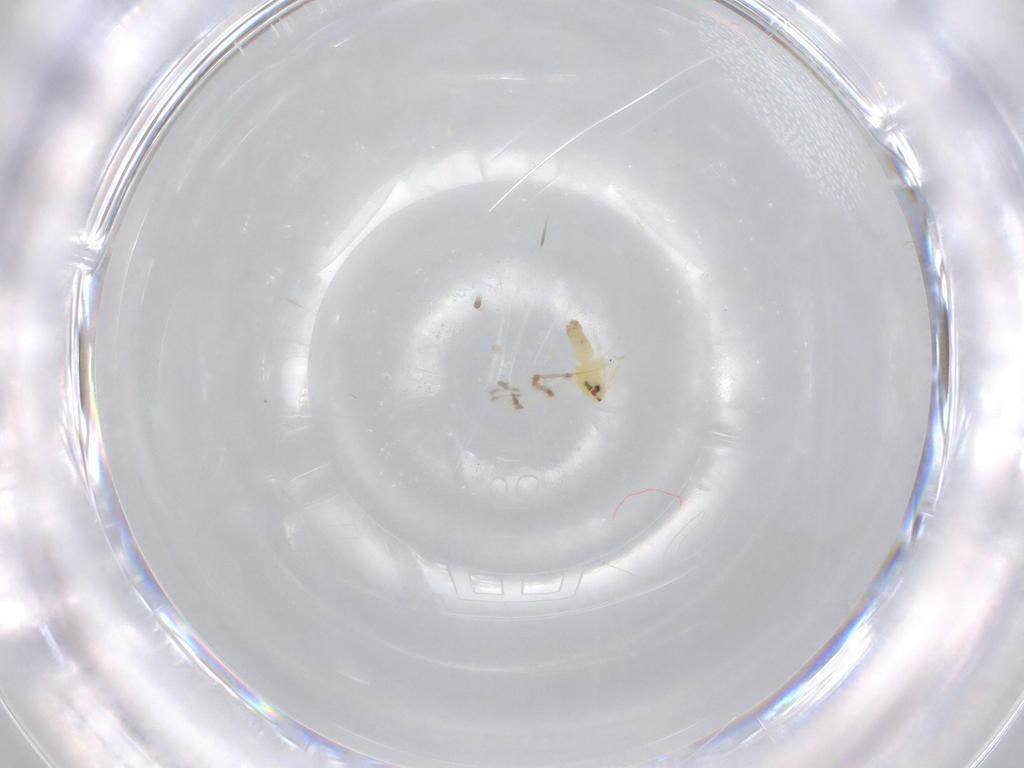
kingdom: Animalia
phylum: Arthropoda
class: Insecta
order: Hemiptera
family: Aleyrodidae
